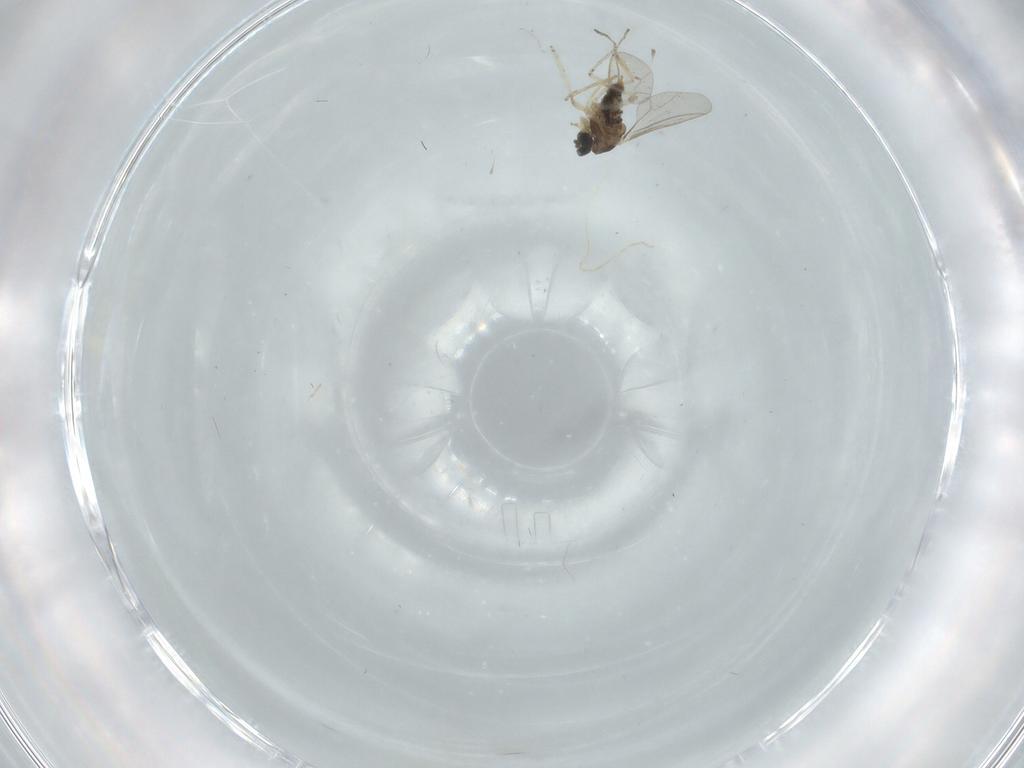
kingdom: Animalia
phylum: Arthropoda
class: Insecta
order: Diptera
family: Cecidomyiidae
